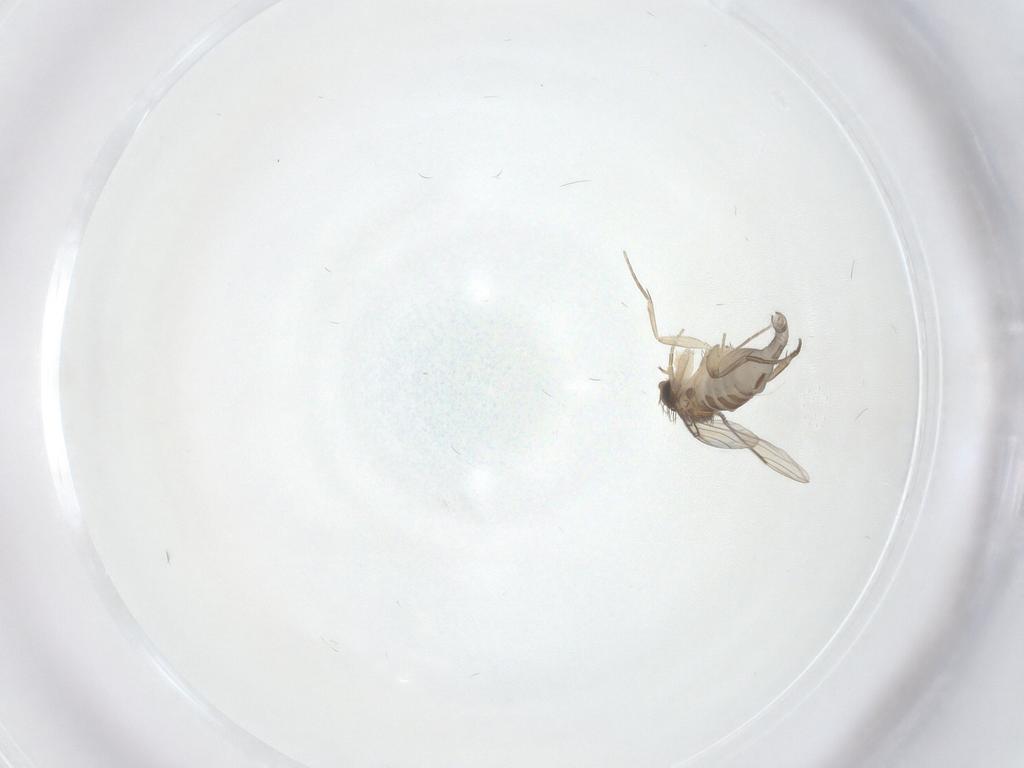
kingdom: Animalia
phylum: Arthropoda
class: Insecta
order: Diptera
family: Phoridae
